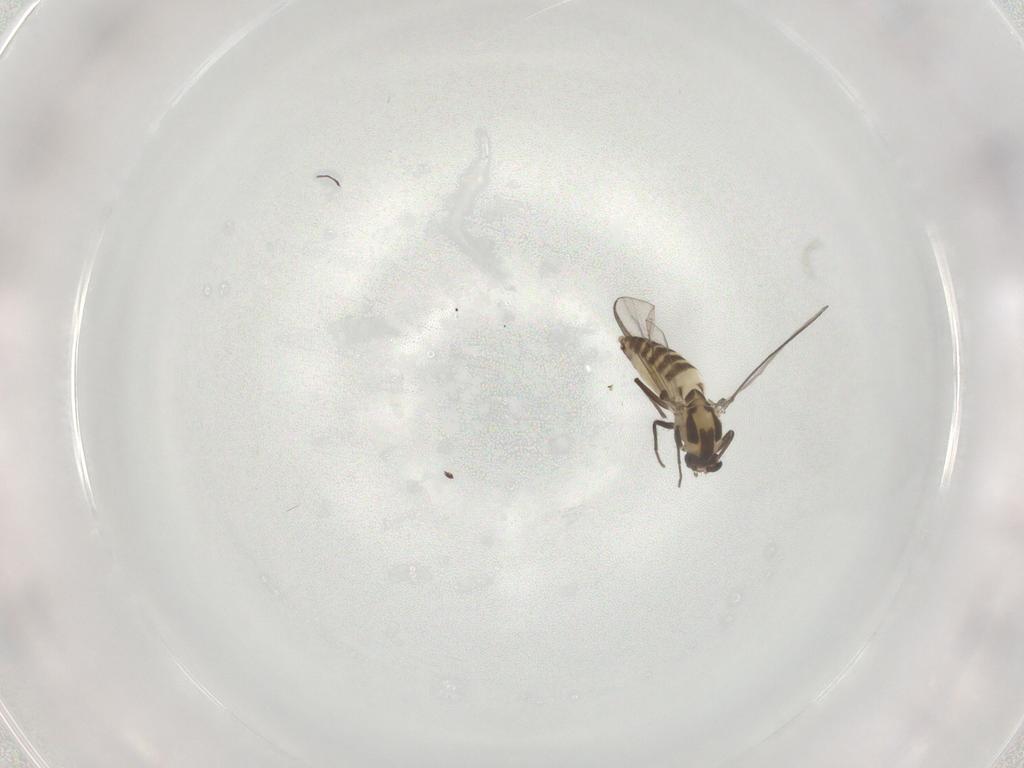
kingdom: Animalia
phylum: Arthropoda
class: Insecta
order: Diptera
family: Chironomidae
